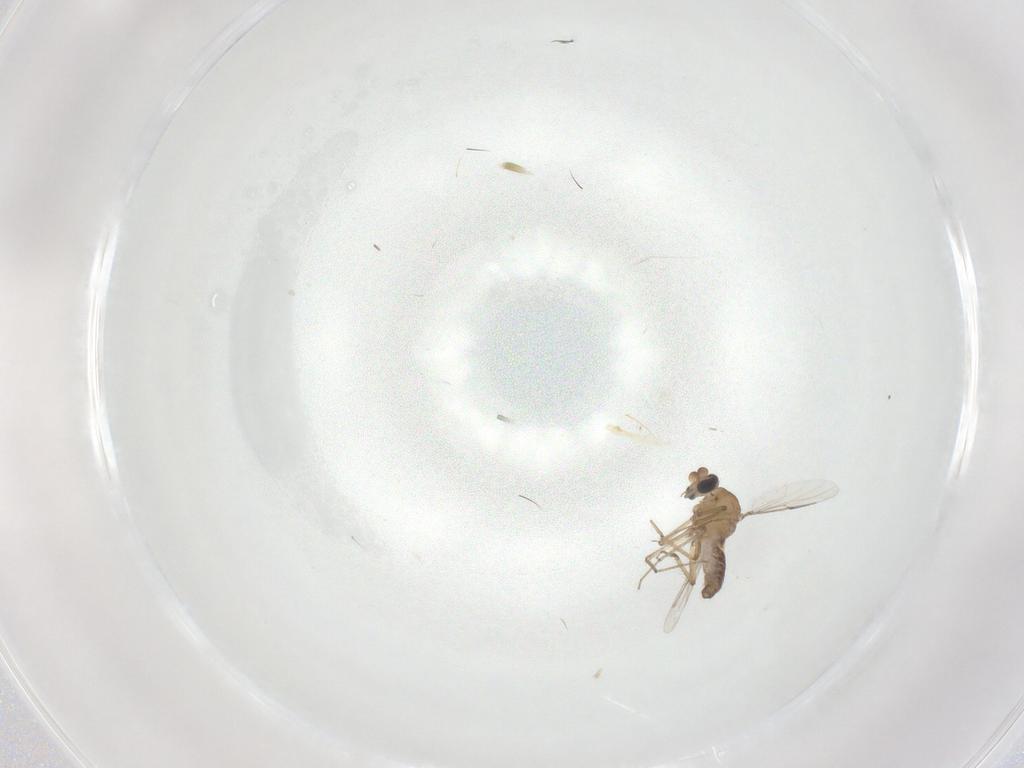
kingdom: Animalia
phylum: Arthropoda
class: Insecta
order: Diptera
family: Ceratopogonidae
